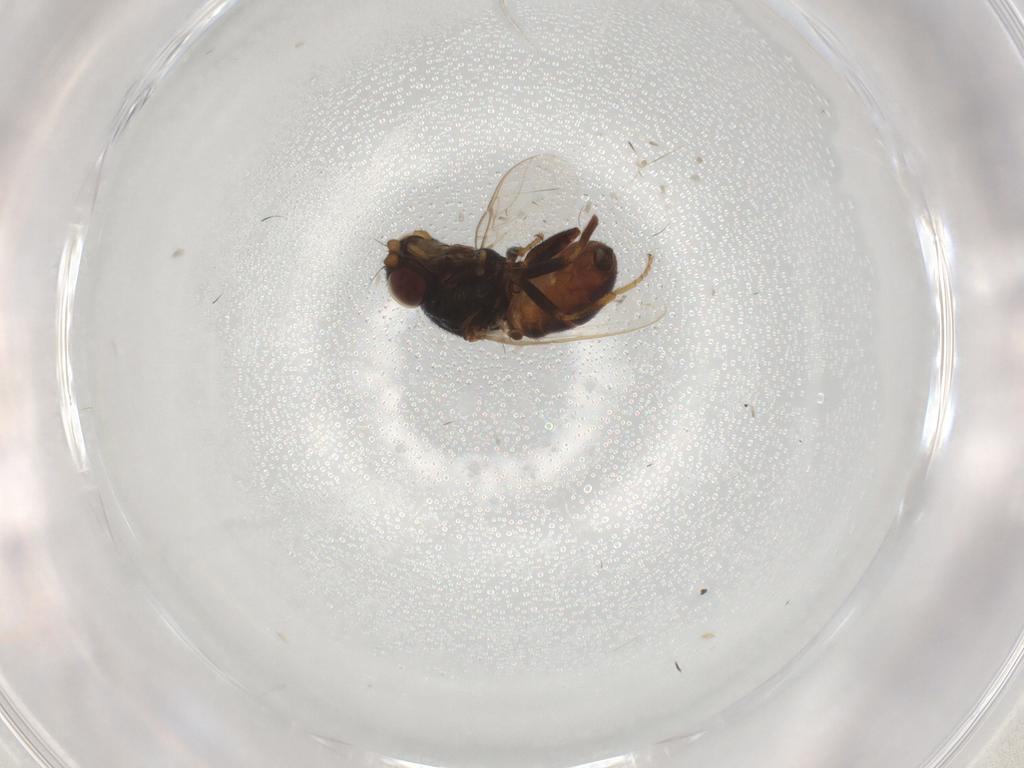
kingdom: Animalia
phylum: Arthropoda
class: Insecta
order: Diptera
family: Chloropidae
